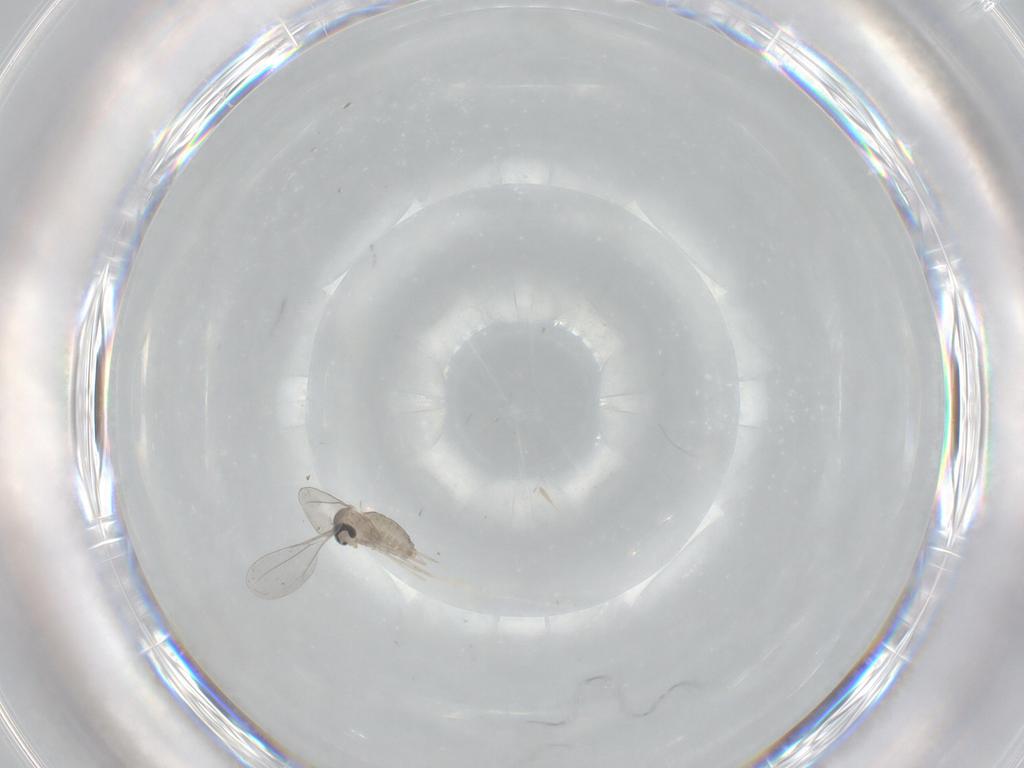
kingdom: Animalia
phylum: Arthropoda
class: Insecta
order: Diptera
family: Cecidomyiidae
